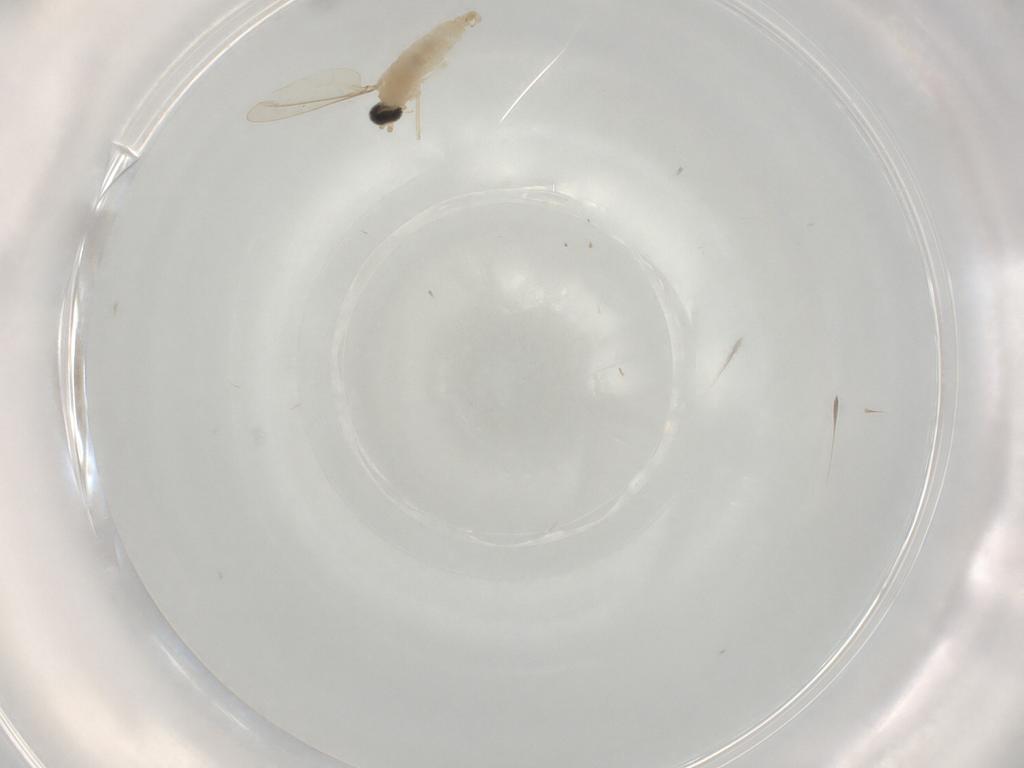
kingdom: Animalia
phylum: Arthropoda
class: Insecta
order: Diptera
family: Cecidomyiidae
